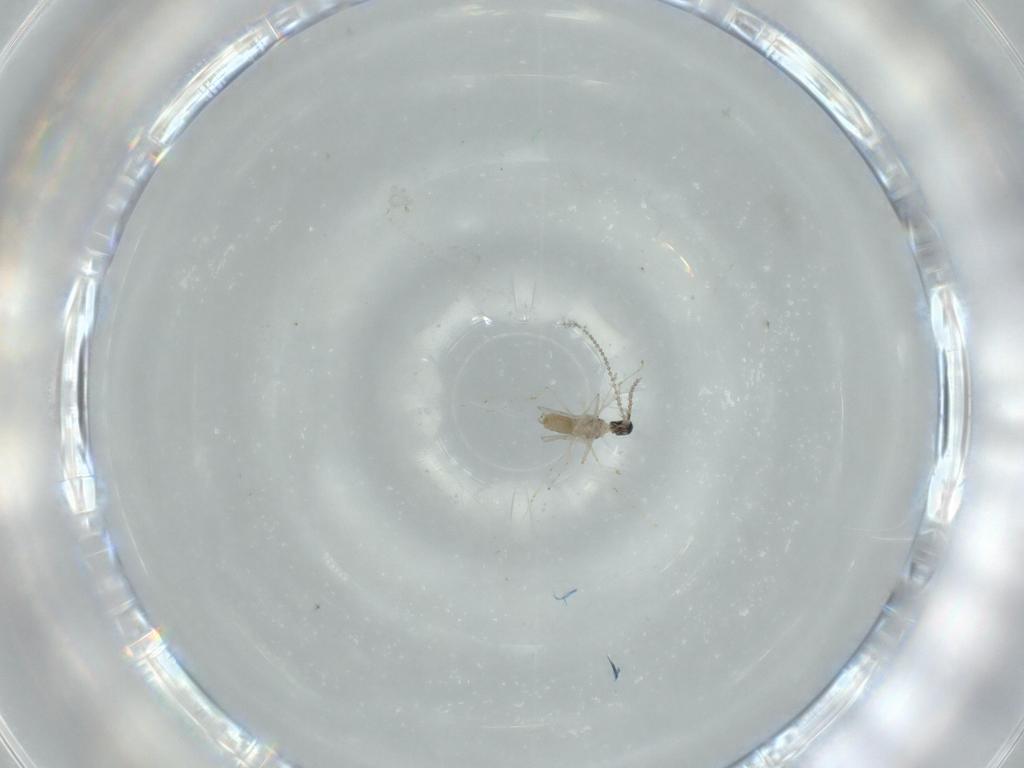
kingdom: Animalia
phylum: Arthropoda
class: Insecta
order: Diptera
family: Cecidomyiidae
